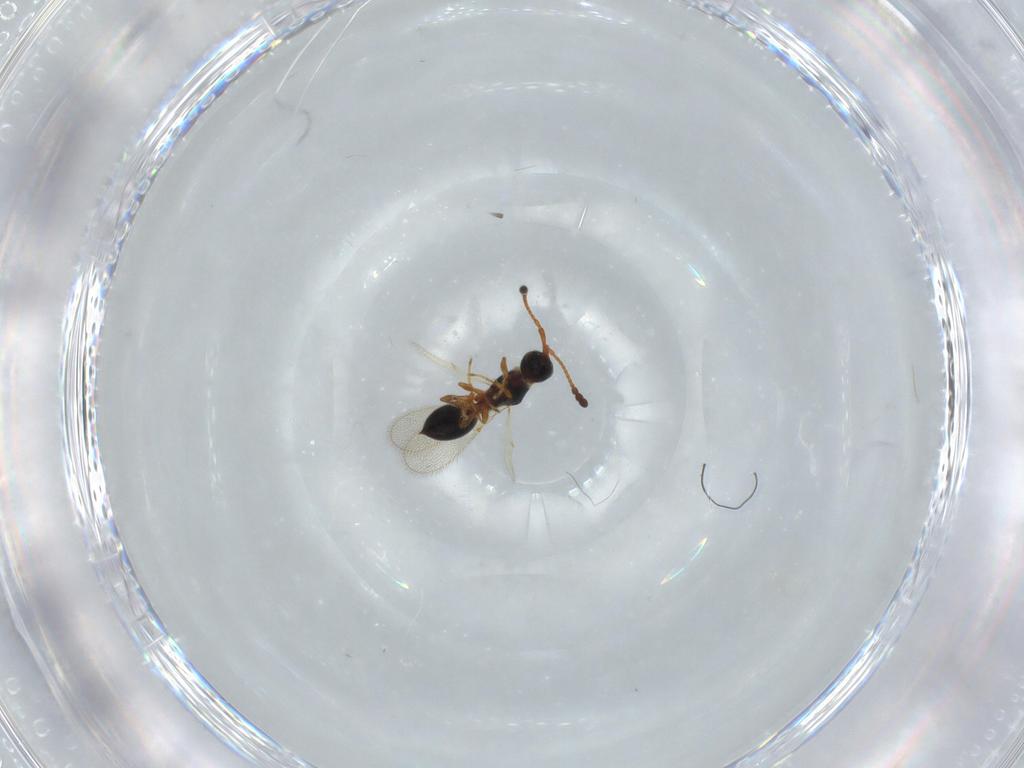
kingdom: Animalia
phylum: Arthropoda
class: Insecta
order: Hymenoptera
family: Diapriidae
